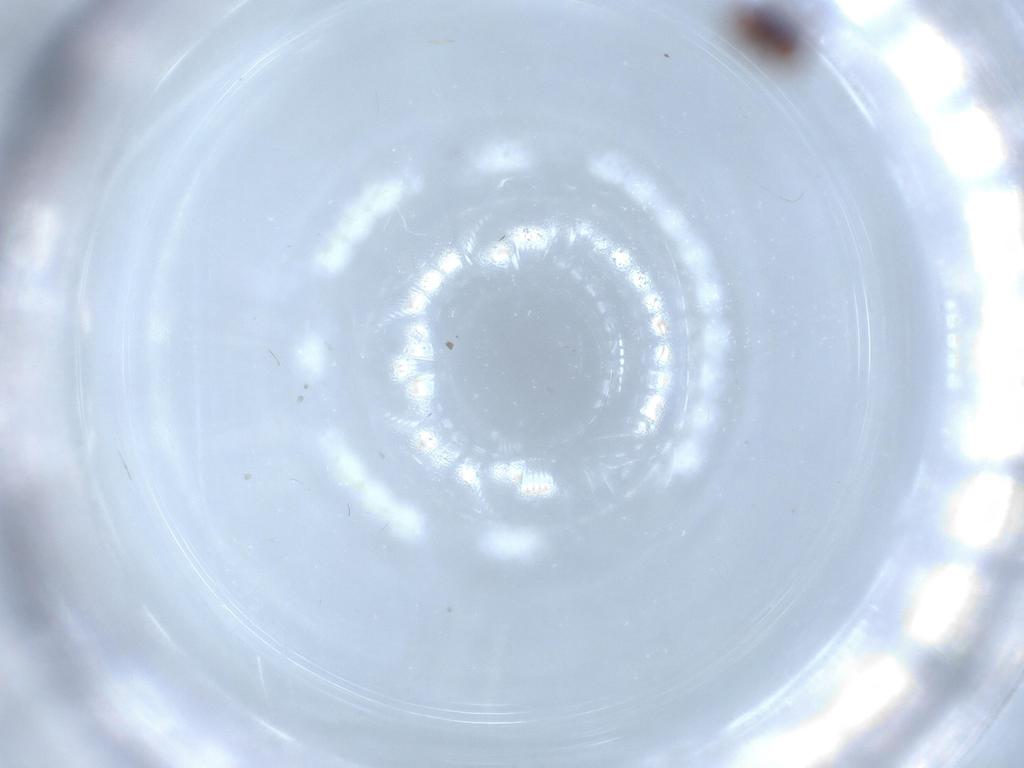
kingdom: Animalia
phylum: Arthropoda
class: Insecta
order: Coleoptera
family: Staphylinidae
